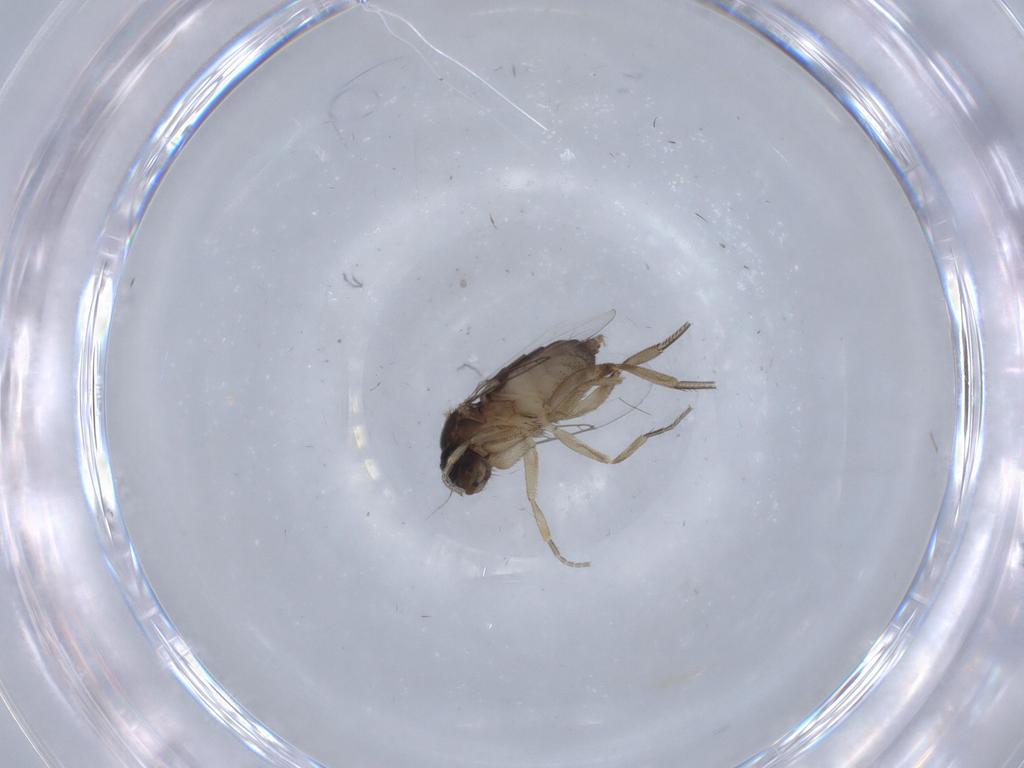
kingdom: Animalia
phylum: Arthropoda
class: Insecta
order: Diptera
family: Phoridae
